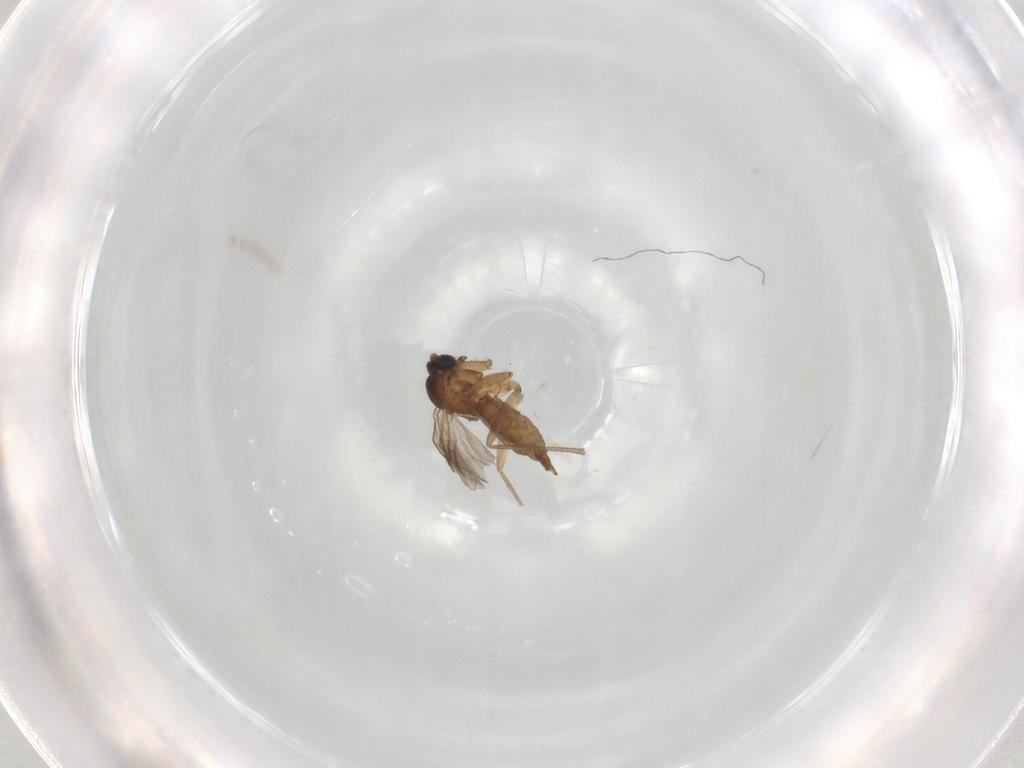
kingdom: Animalia
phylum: Arthropoda
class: Insecta
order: Diptera
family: Sciaridae
